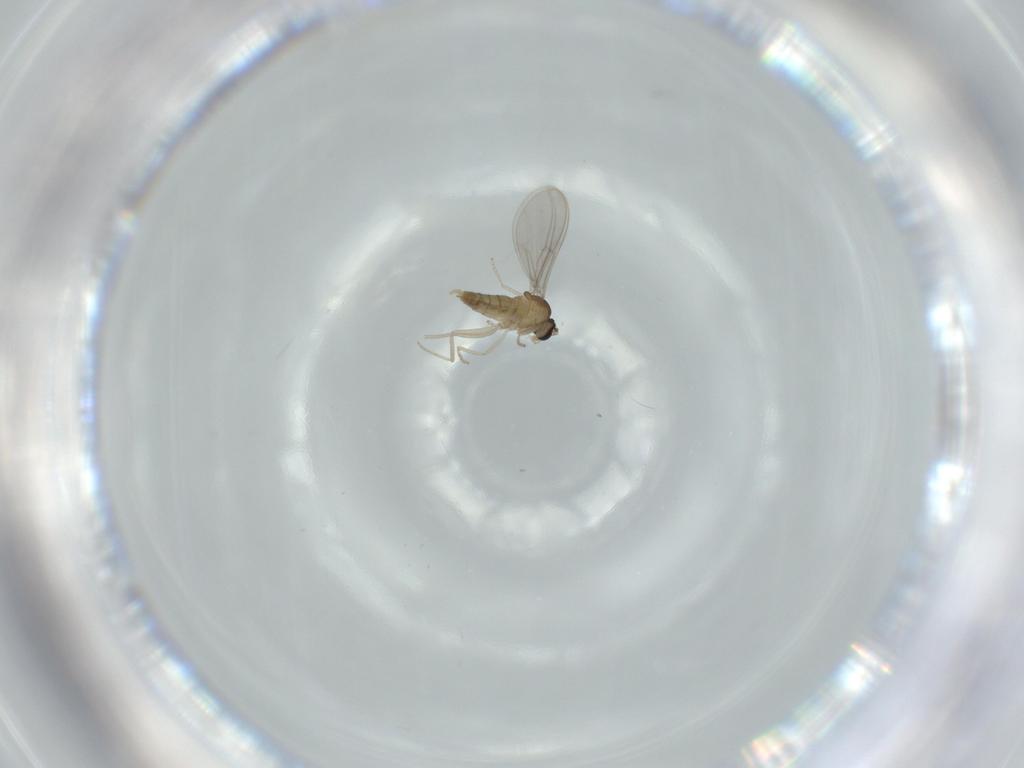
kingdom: Animalia
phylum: Arthropoda
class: Insecta
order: Diptera
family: Cecidomyiidae
